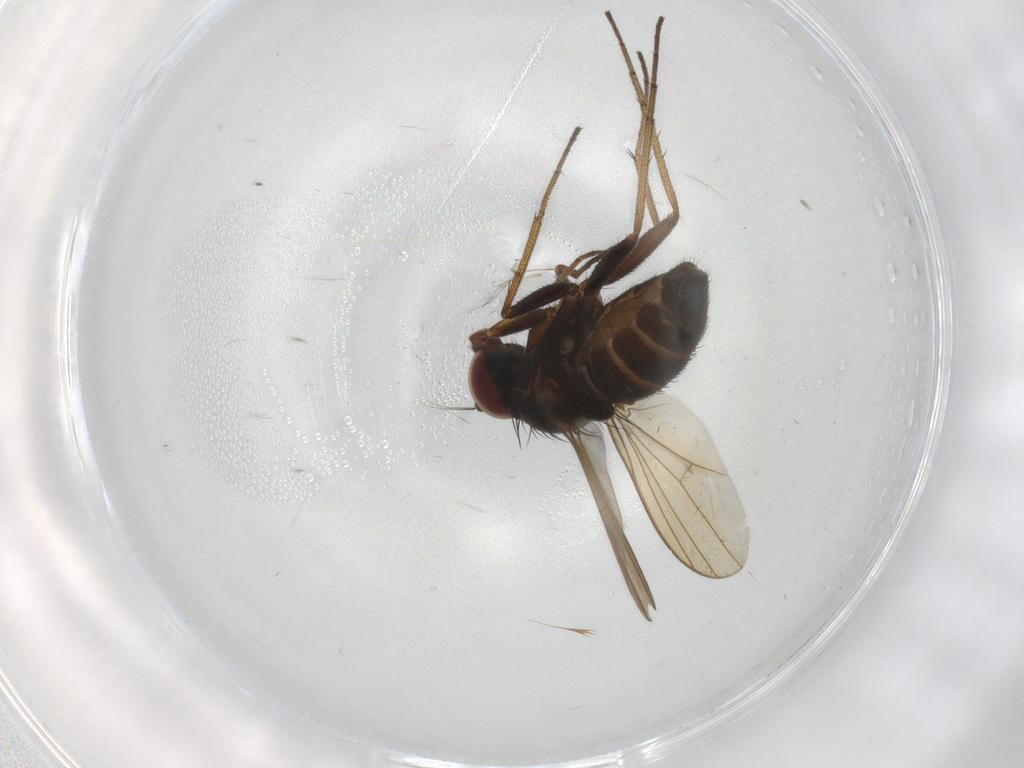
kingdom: Animalia
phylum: Arthropoda
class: Insecta
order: Diptera
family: Dolichopodidae
